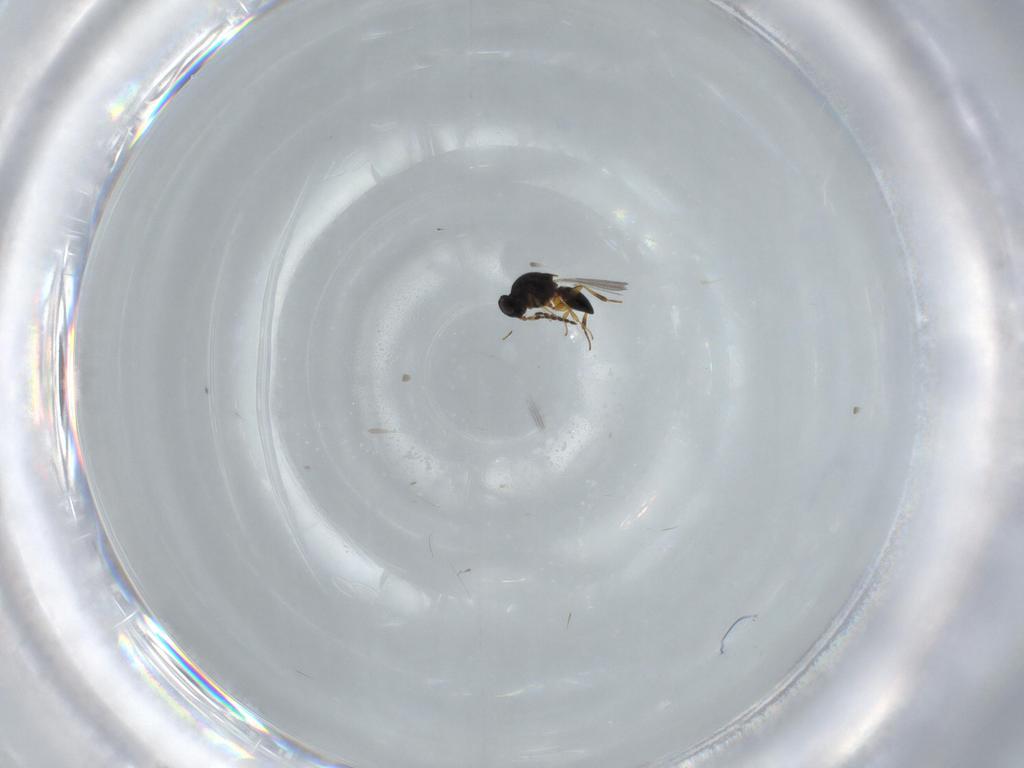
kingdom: Animalia
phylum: Arthropoda
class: Insecta
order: Hymenoptera
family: Platygastridae
